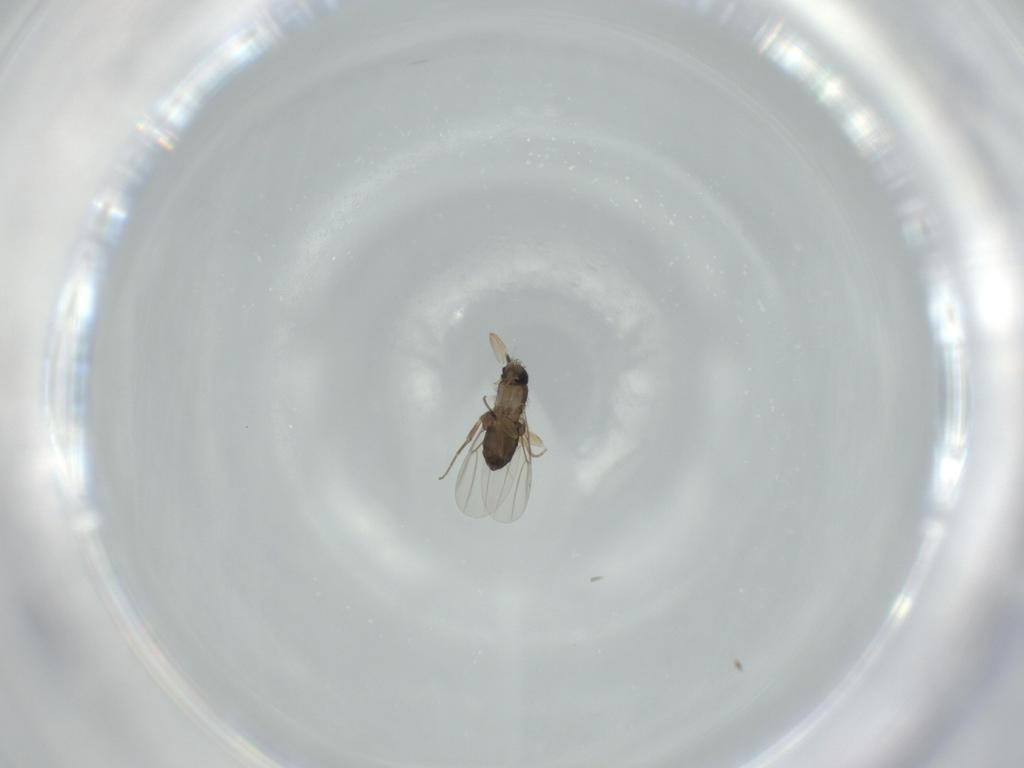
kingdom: Animalia
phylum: Arthropoda
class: Insecta
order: Diptera
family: Phoridae
